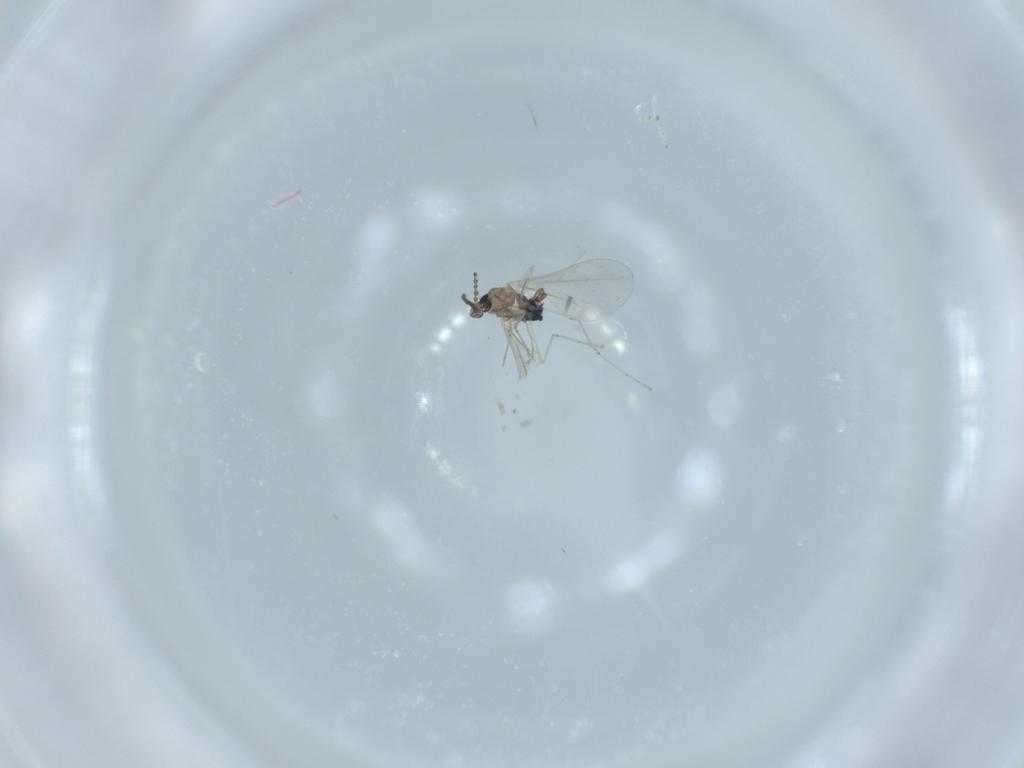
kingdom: Animalia
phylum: Arthropoda
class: Insecta
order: Diptera
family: Cecidomyiidae
